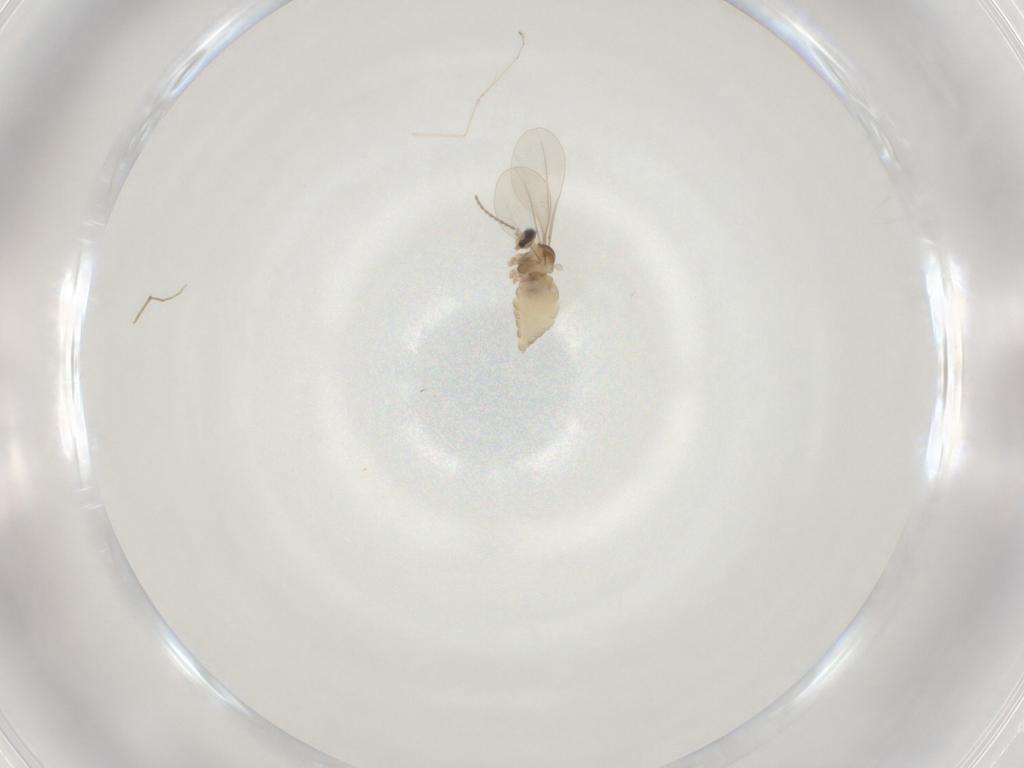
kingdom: Animalia
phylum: Arthropoda
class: Insecta
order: Diptera
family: Cecidomyiidae
